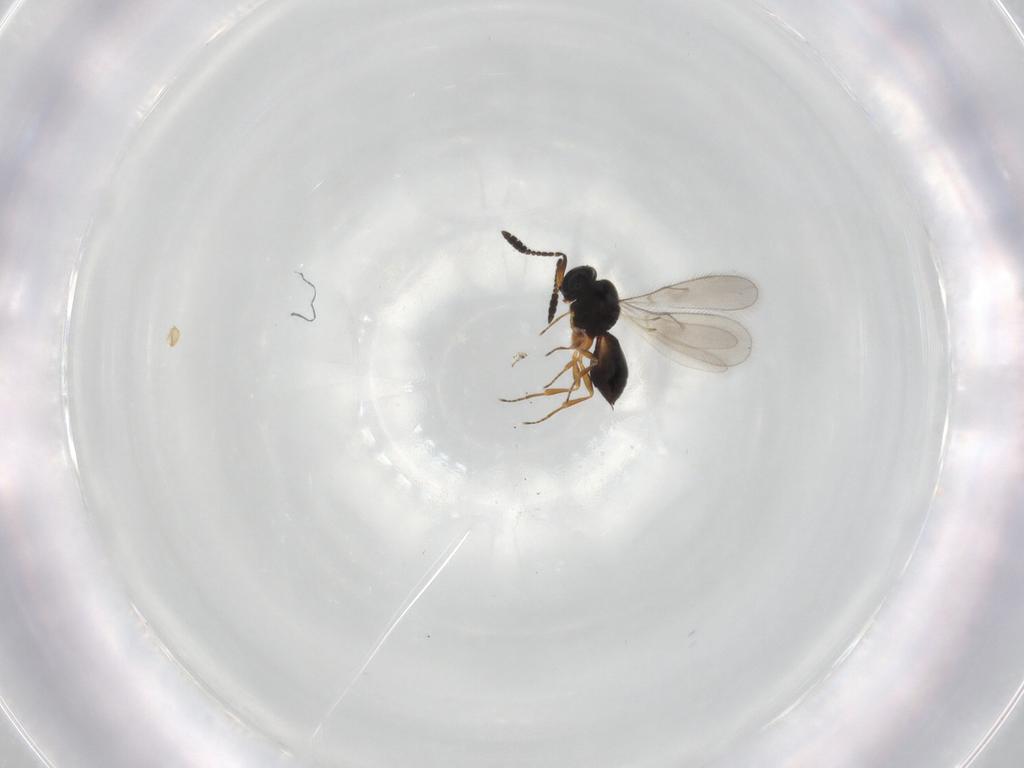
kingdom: Animalia
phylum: Arthropoda
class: Insecta
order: Hymenoptera
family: Scelionidae
